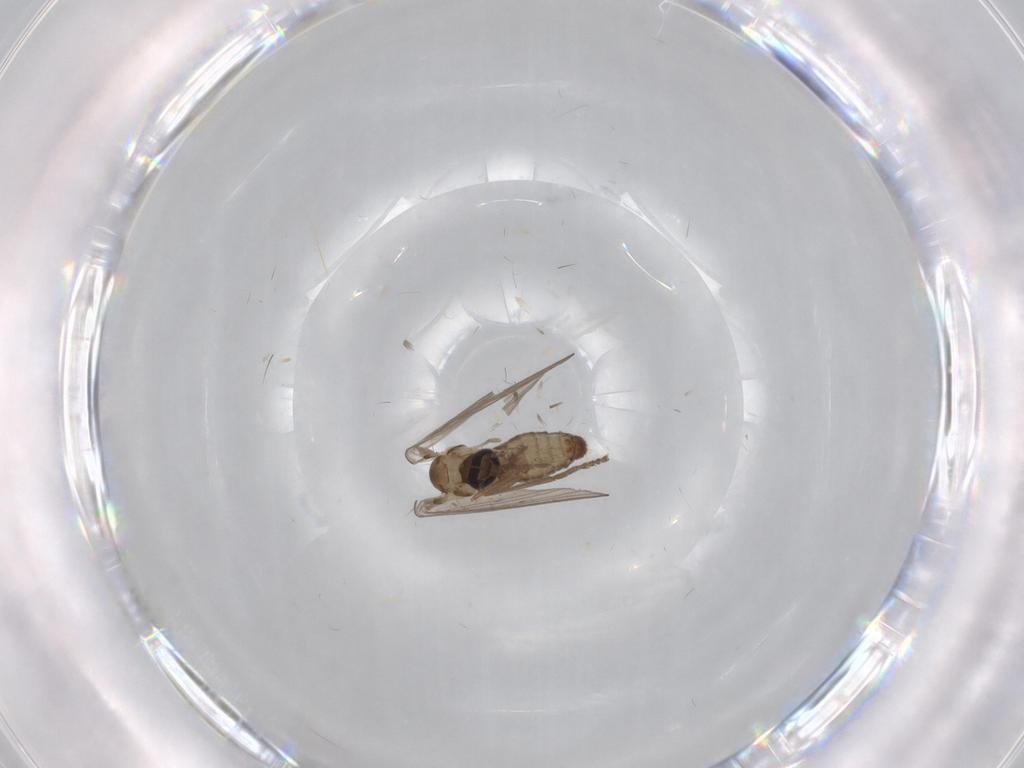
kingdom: Animalia
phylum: Arthropoda
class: Insecta
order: Diptera
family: Psychodidae
